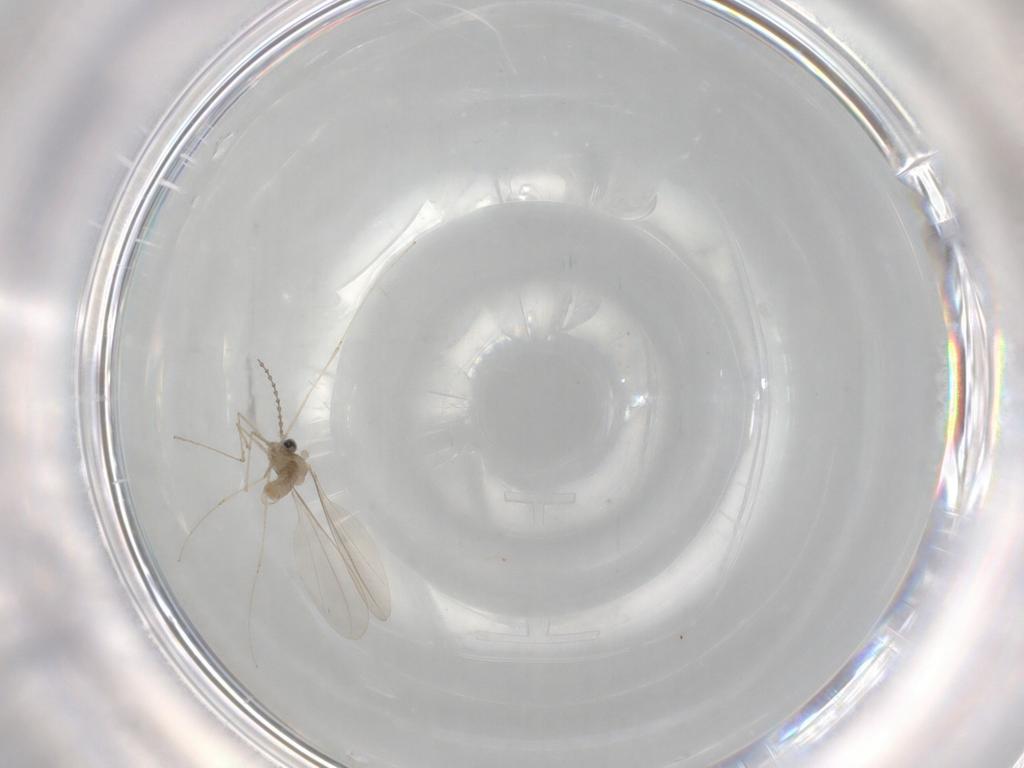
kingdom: Animalia
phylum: Arthropoda
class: Insecta
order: Diptera
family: Cecidomyiidae
